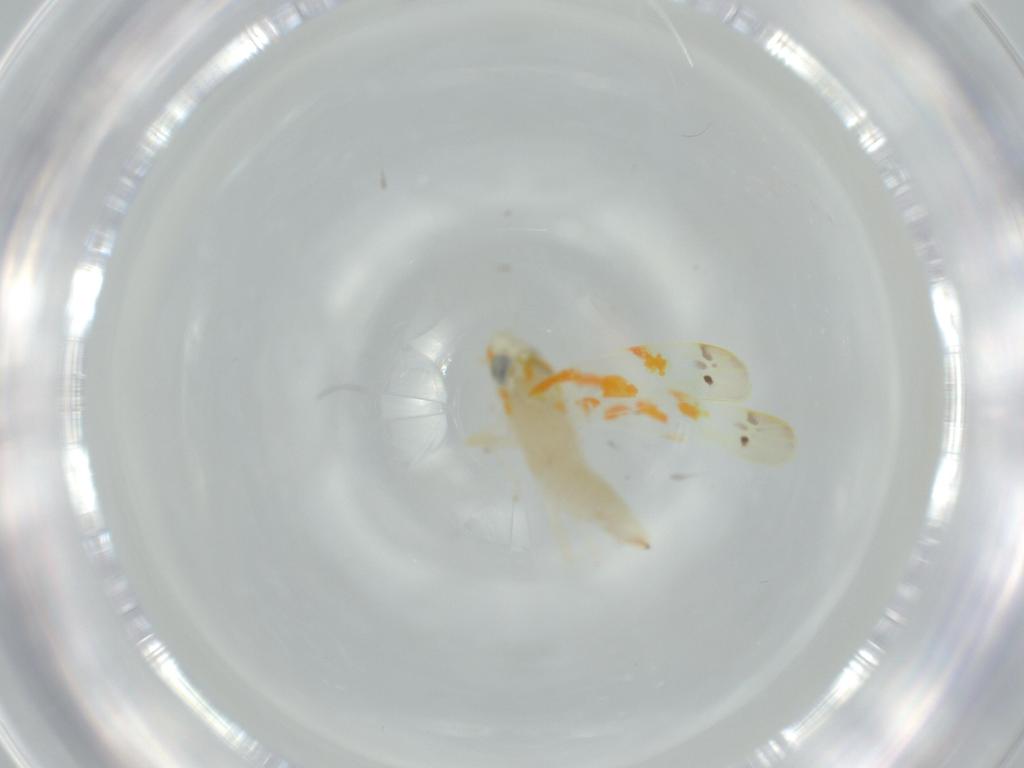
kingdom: Animalia
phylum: Arthropoda
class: Insecta
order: Hemiptera
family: Cicadellidae
